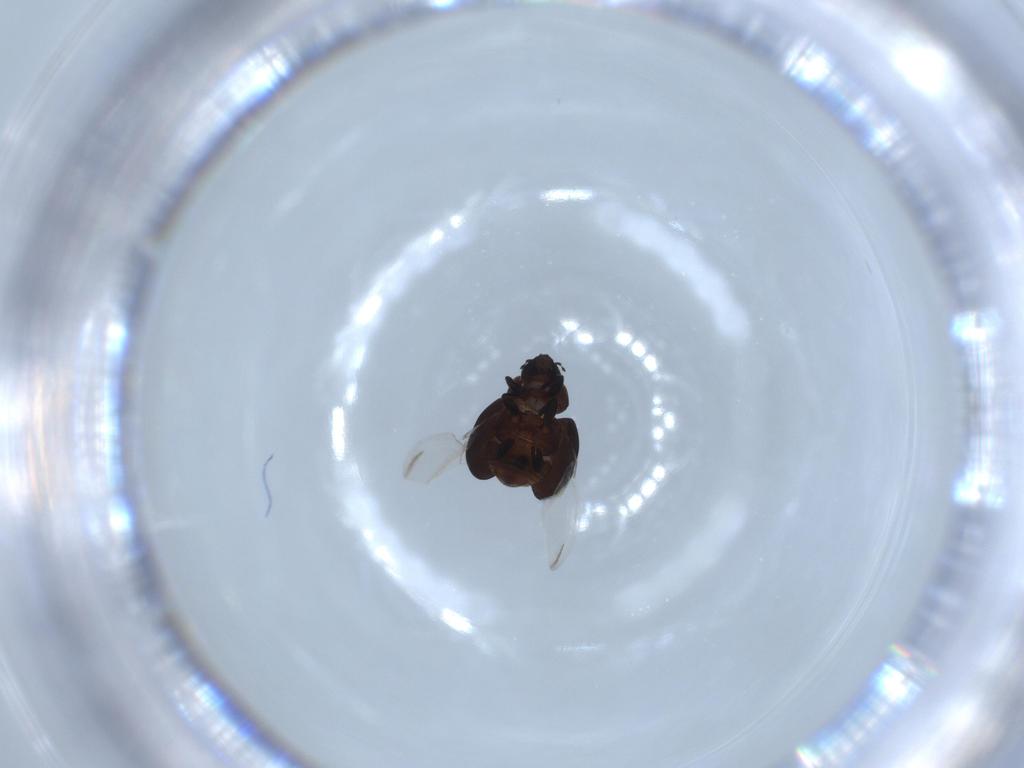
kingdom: Animalia
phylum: Arthropoda
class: Insecta
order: Coleoptera
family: Coccinellidae
